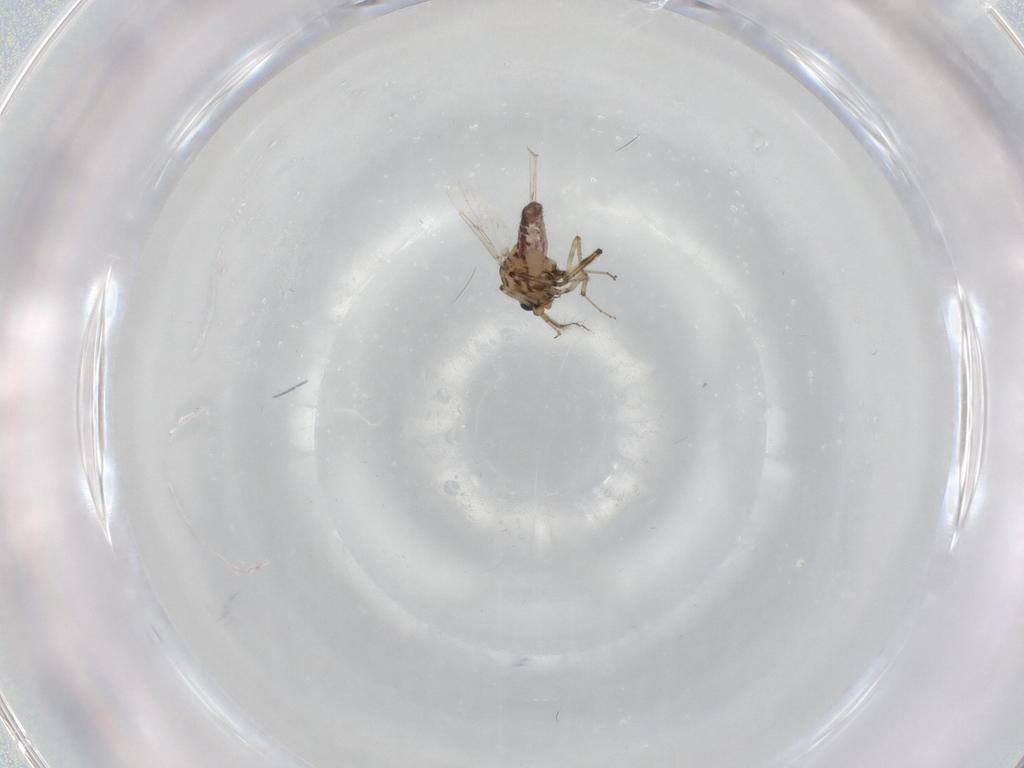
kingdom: Animalia
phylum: Arthropoda
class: Insecta
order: Diptera
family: Ceratopogonidae
